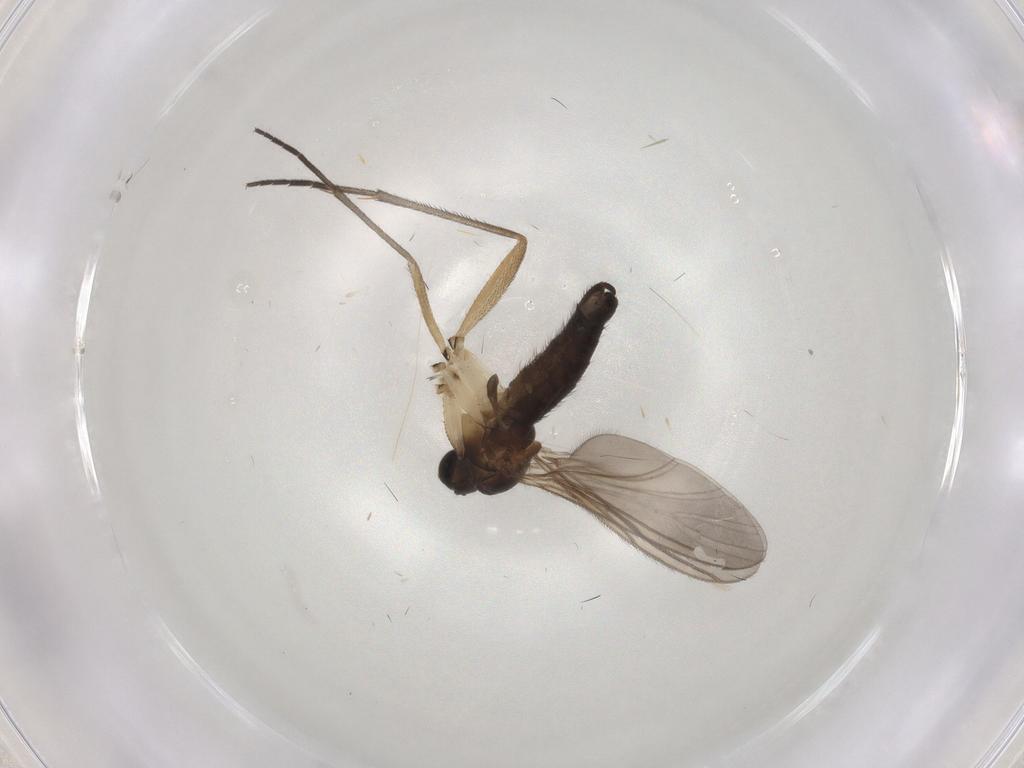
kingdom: Animalia
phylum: Arthropoda
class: Insecta
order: Diptera
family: Sciaridae
